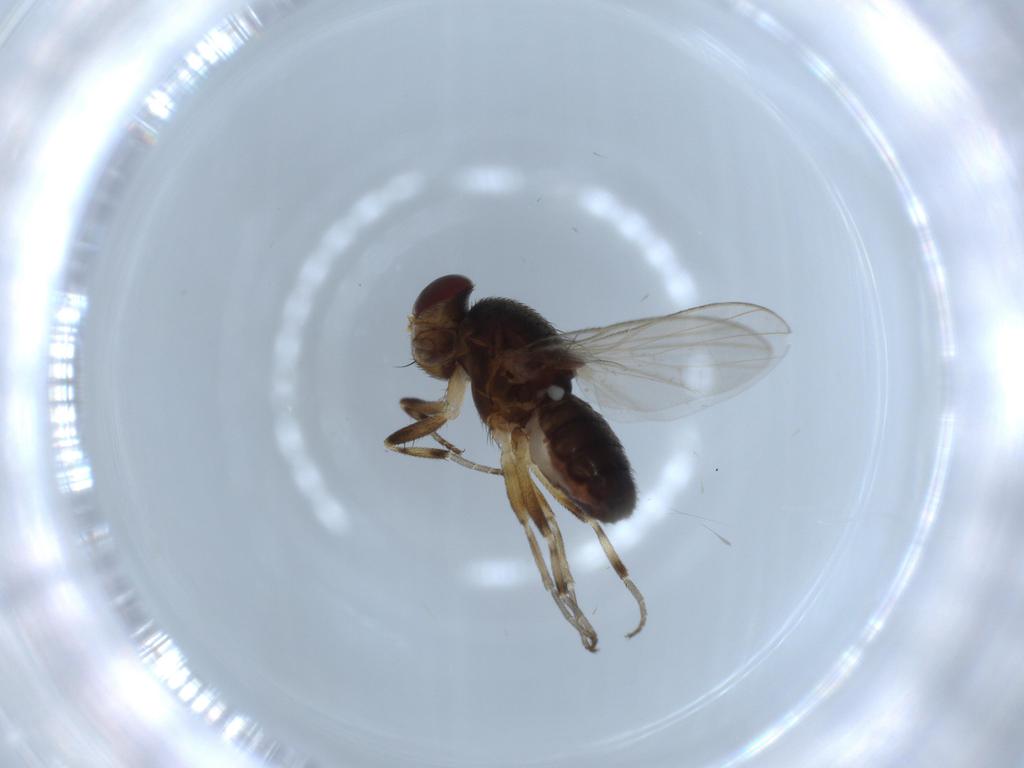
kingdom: Animalia
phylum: Arthropoda
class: Insecta
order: Diptera
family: Heleomyzidae
